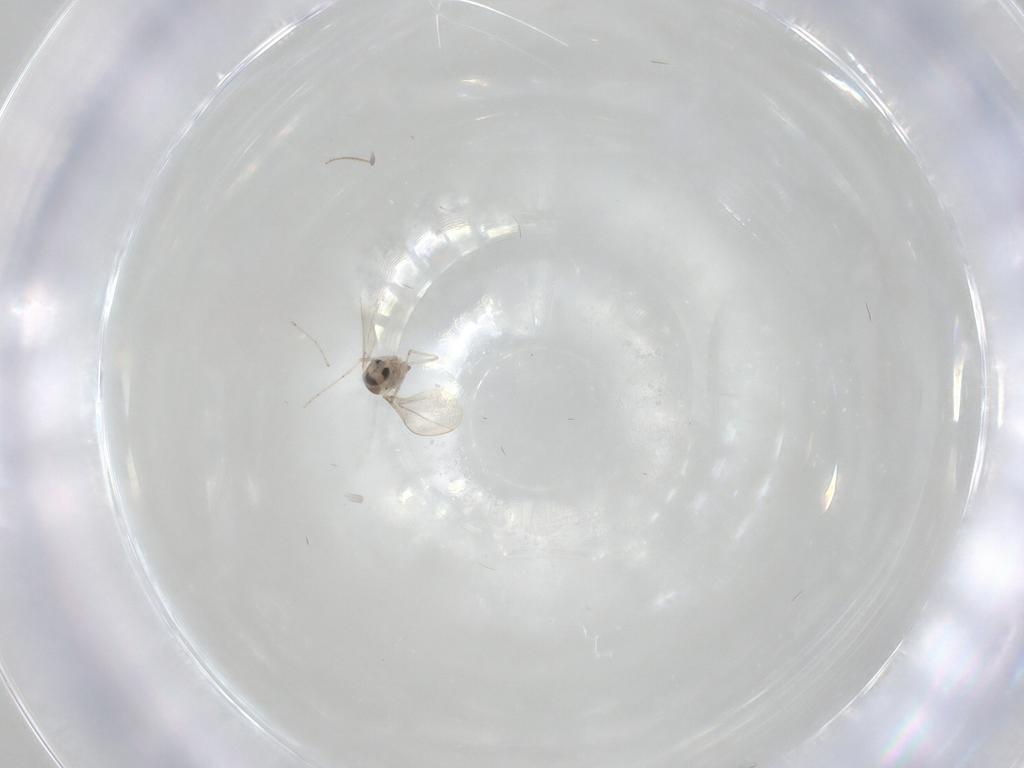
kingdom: Animalia
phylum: Arthropoda
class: Insecta
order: Diptera
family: Cecidomyiidae
